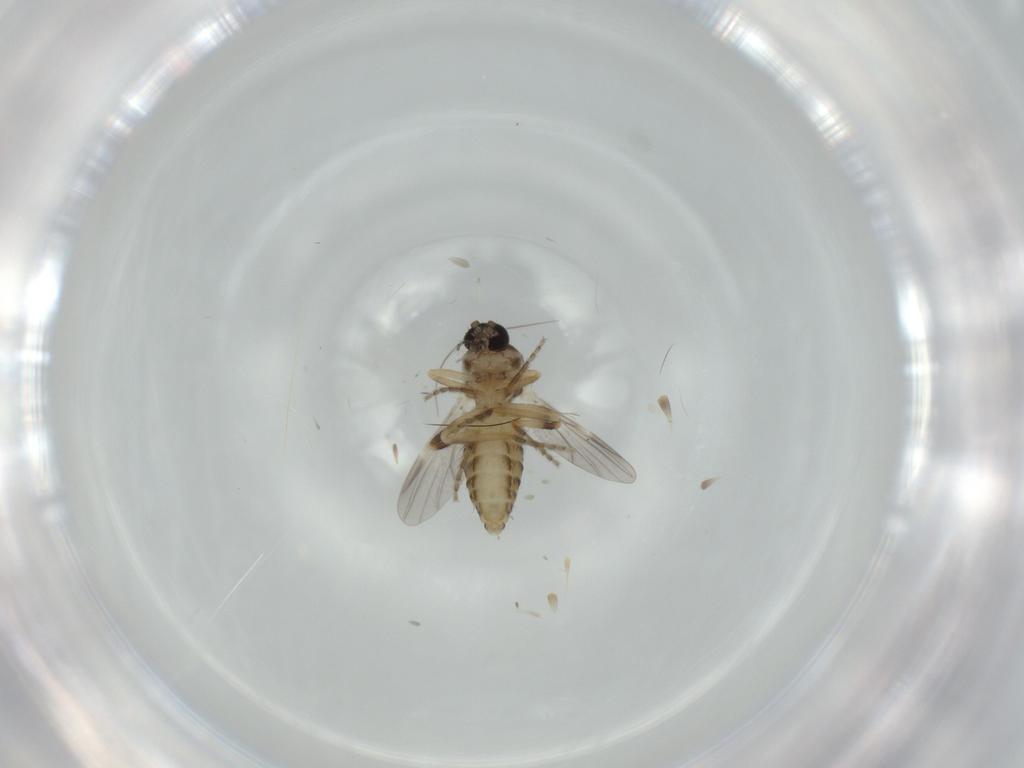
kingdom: Animalia
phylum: Arthropoda
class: Insecta
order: Diptera
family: Ceratopogonidae
